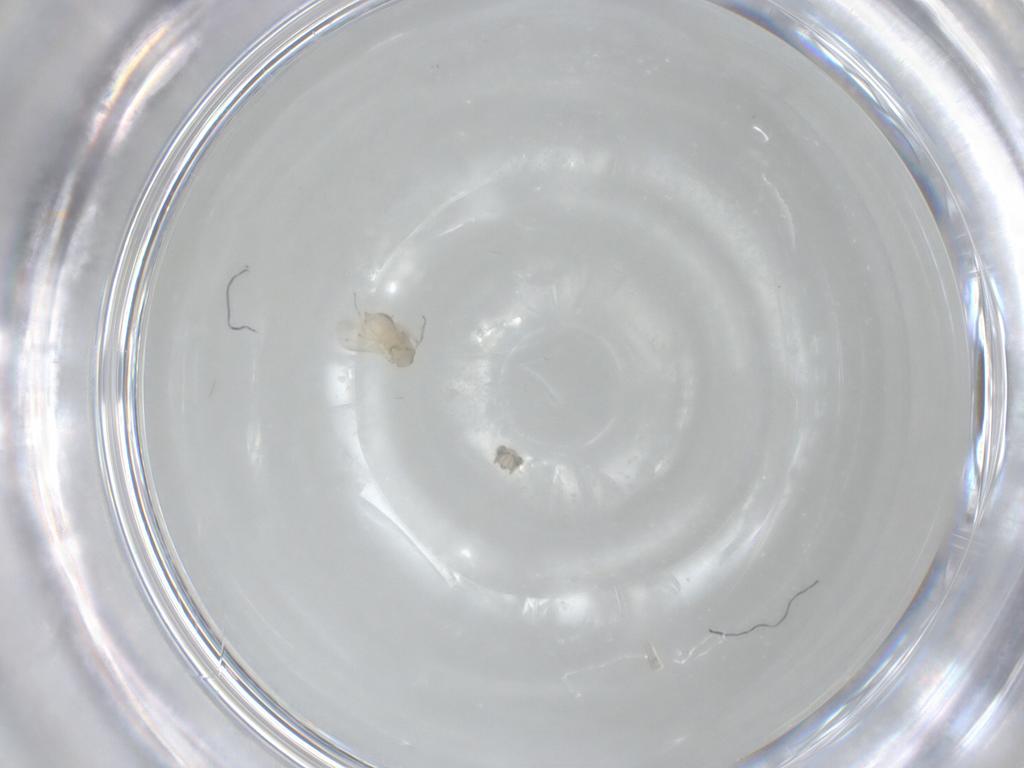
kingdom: Animalia
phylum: Arthropoda
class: Insecta
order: Hymenoptera
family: Aphelinidae
